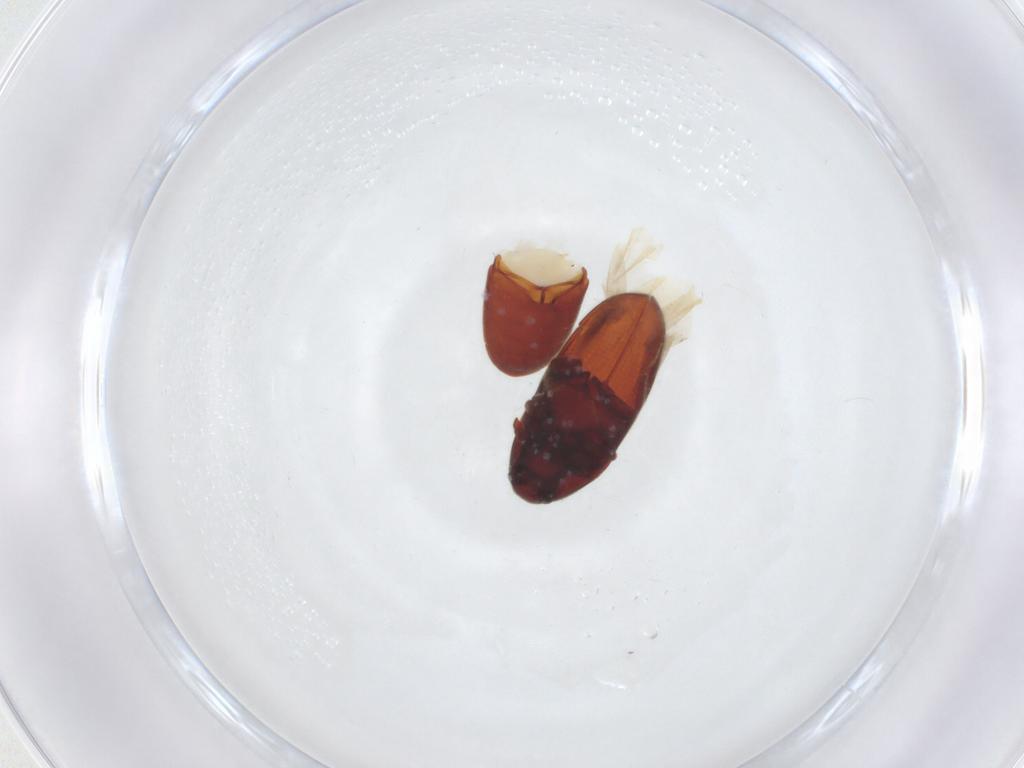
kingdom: Animalia
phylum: Arthropoda
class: Insecta
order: Coleoptera
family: Throscidae
